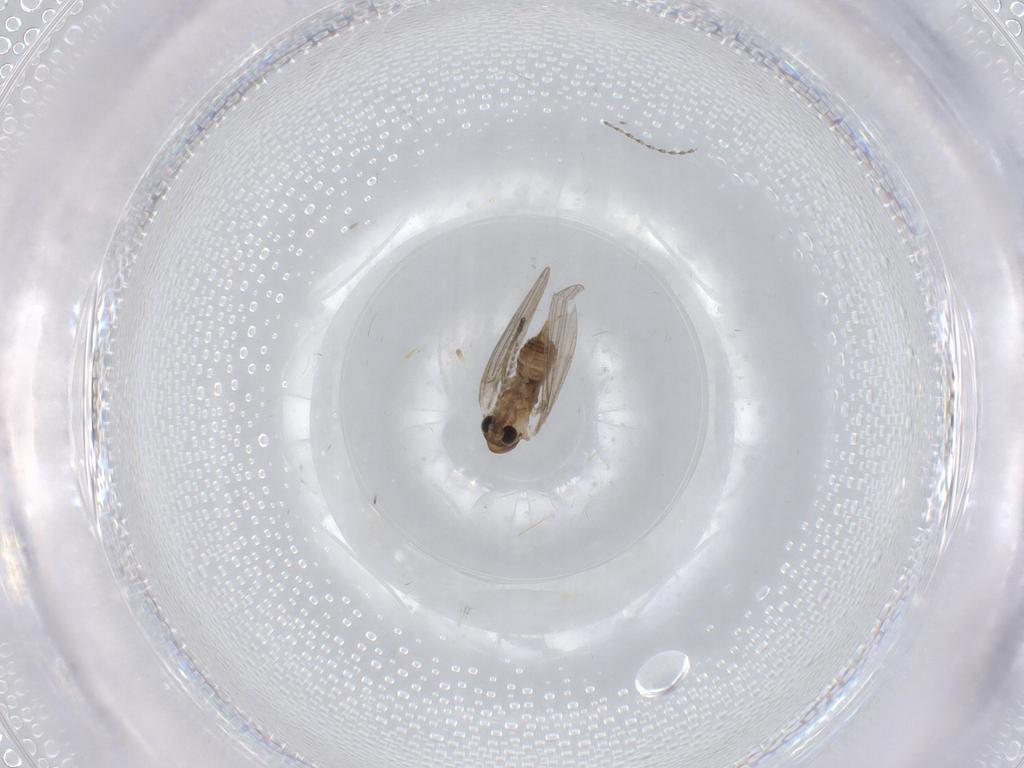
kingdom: Animalia
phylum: Arthropoda
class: Insecta
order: Diptera
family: Cecidomyiidae
